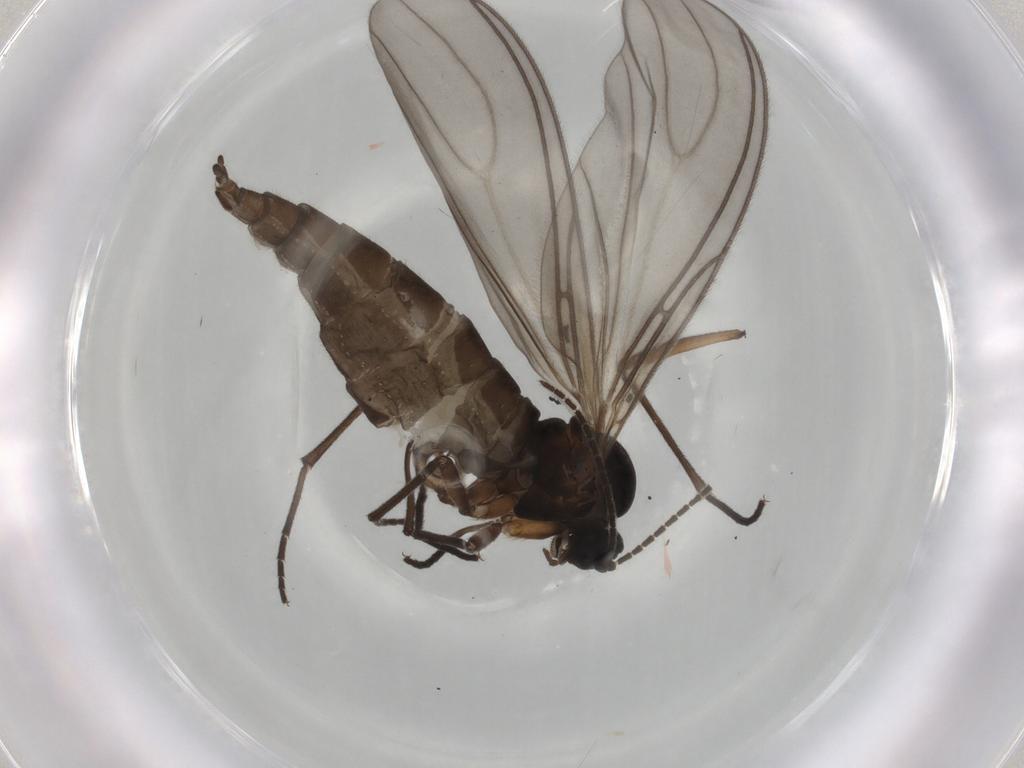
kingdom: Animalia
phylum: Arthropoda
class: Insecta
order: Diptera
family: Sciaridae
